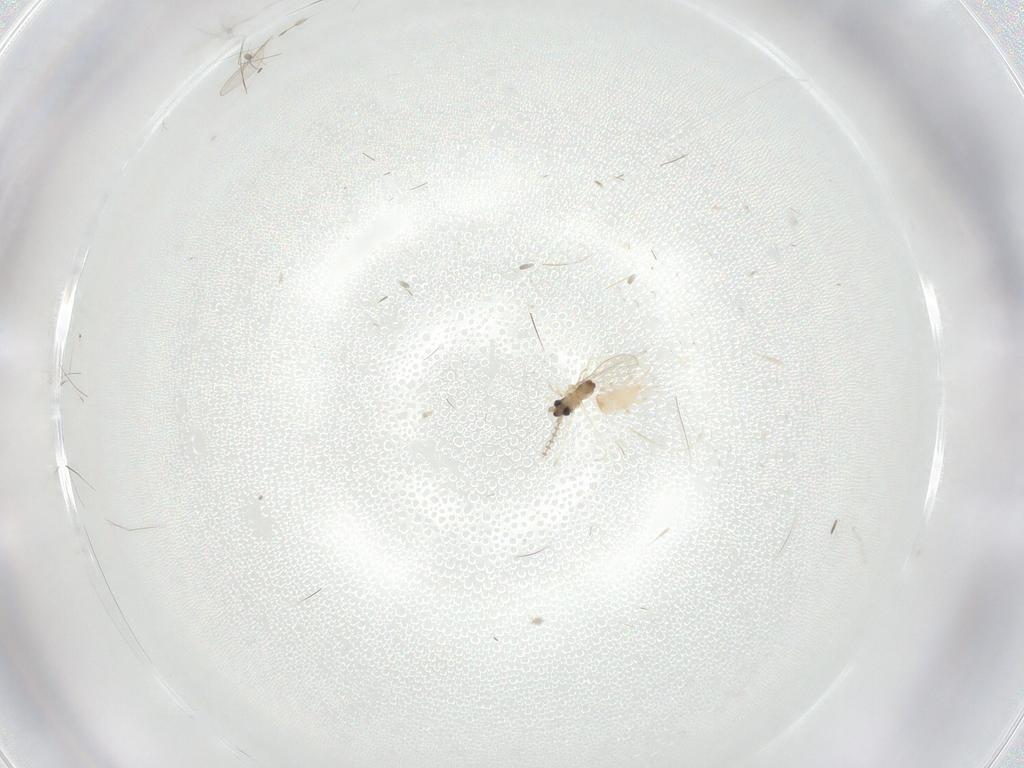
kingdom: Animalia
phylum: Arthropoda
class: Insecta
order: Diptera
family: Cecidomyiidae
